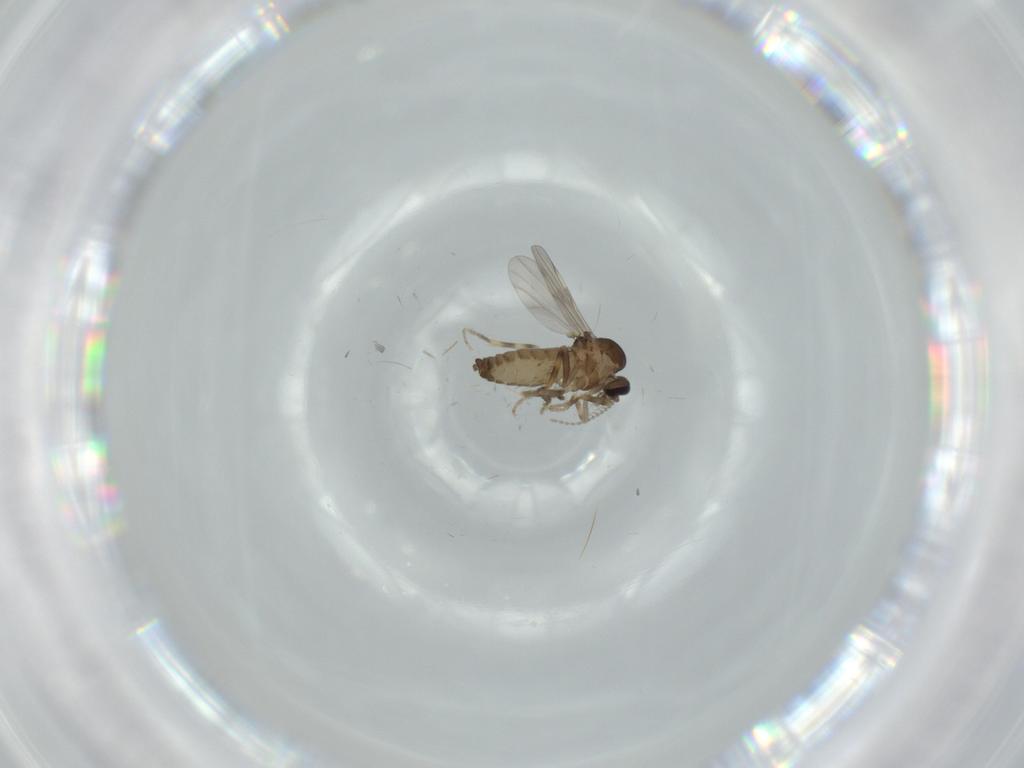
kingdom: Animalia
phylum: Arthropoda
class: Insecta
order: Diptera
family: Ceratopogonidae
